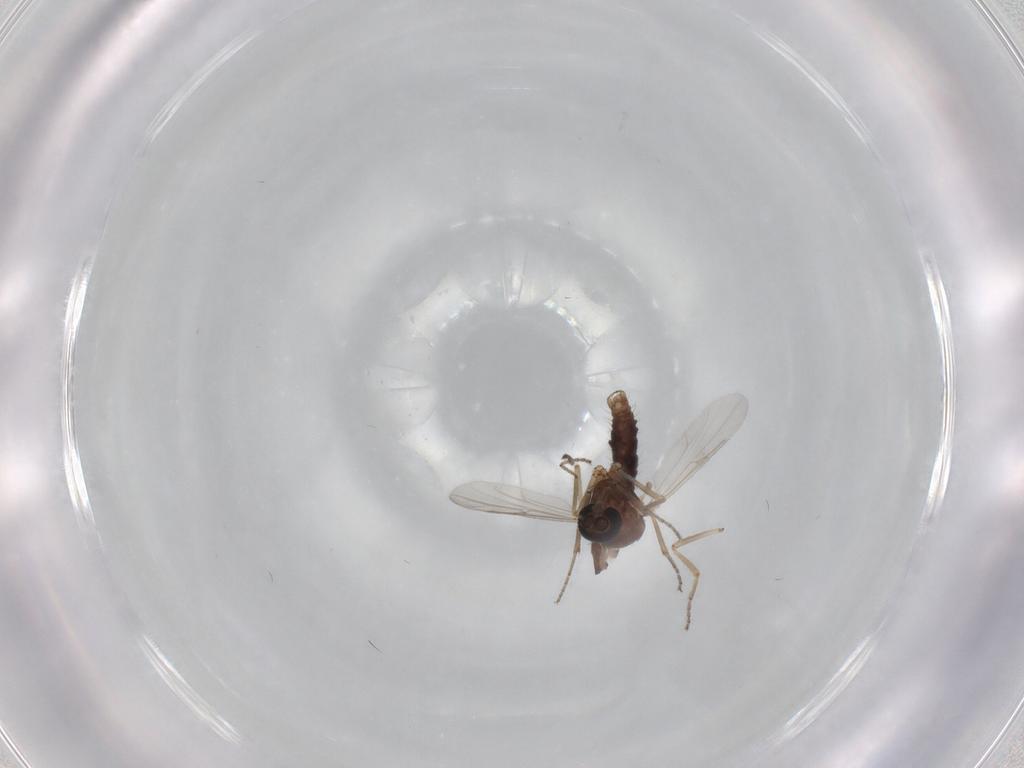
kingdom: Animalia
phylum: Arthropoda
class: Insecta
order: Diptera
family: Ceratopogonidae
